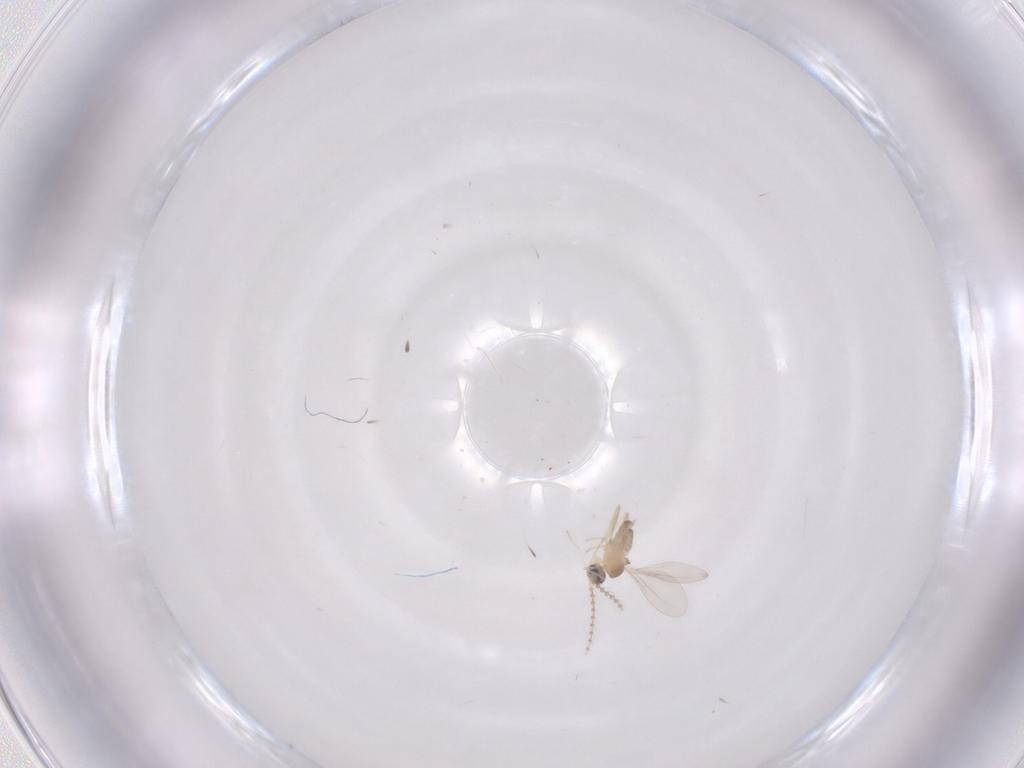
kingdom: Animalia
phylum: Arthropoda
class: Insecta
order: Diptera
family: Cecidomyiidae
